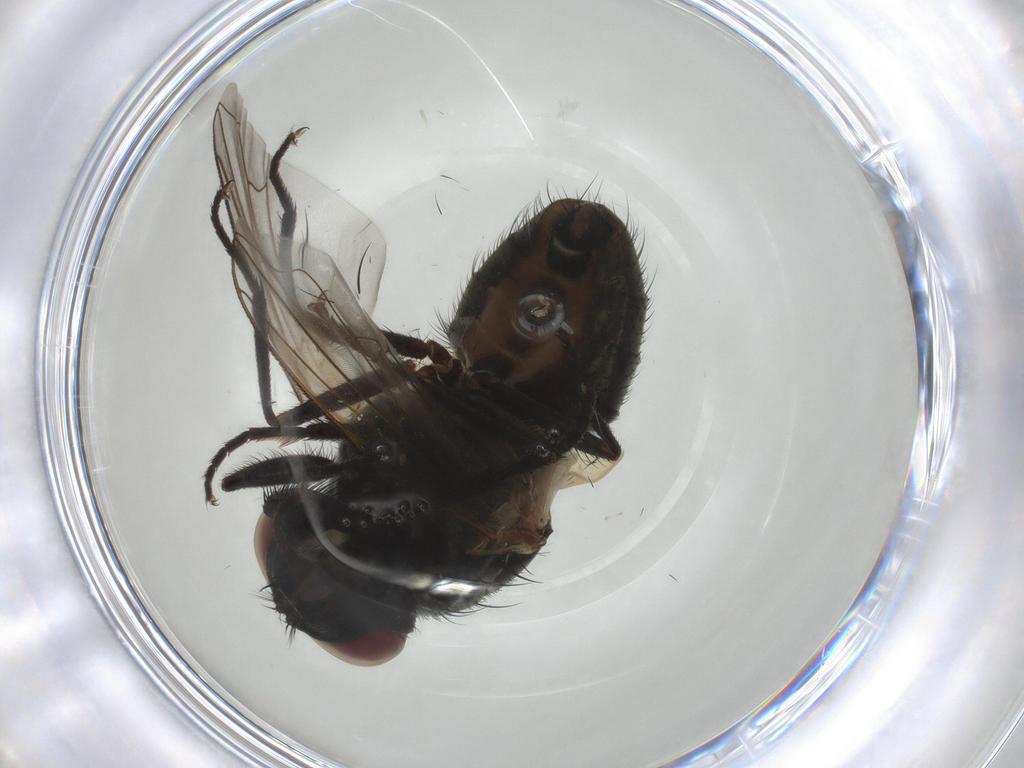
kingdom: Animalia
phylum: Arthropoda
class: Insecta
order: Diptera
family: Muscidae
